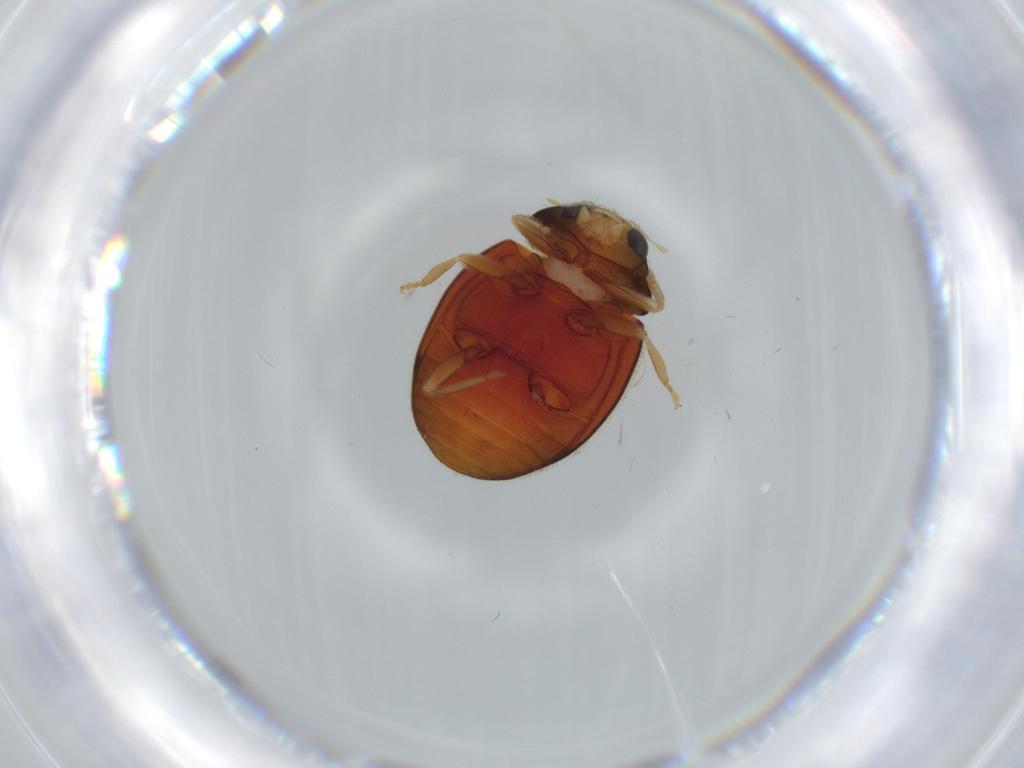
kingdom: Animalia
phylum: Arthropoda
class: Insecta
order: Coleoptera
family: Coccinellidae
